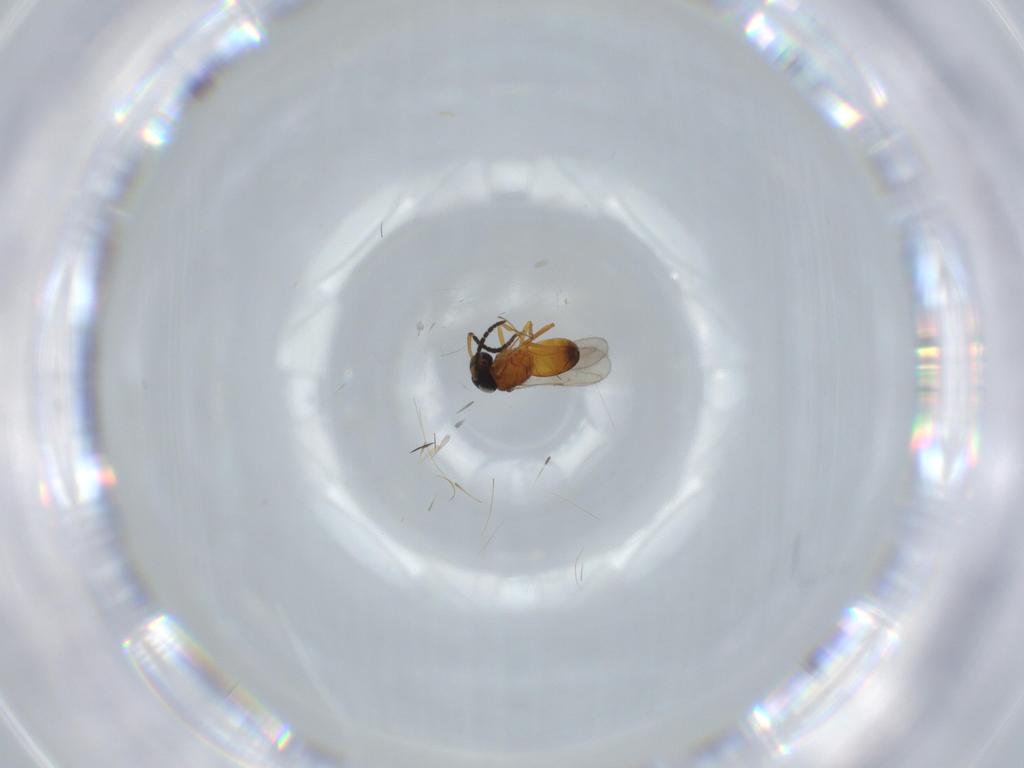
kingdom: Animalia
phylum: Arthropoda
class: Insecta
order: Hymenoptera
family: Scelionidae
